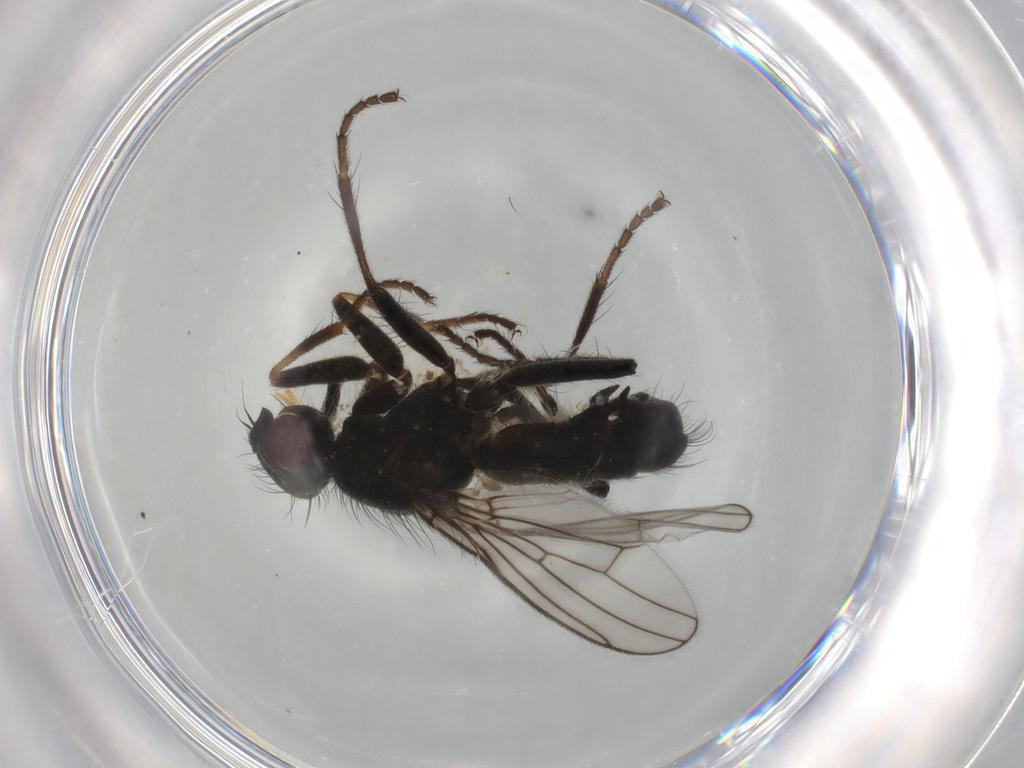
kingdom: Animalia
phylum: Arthropoda
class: Insecta
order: Diptera
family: Scathophagidae
